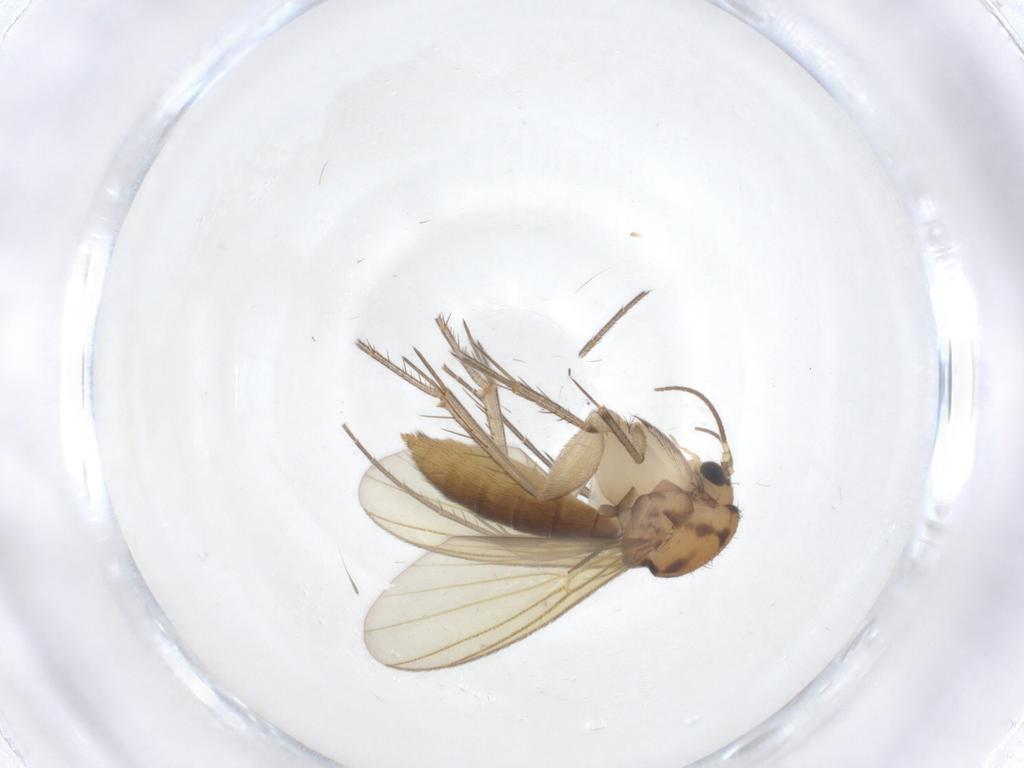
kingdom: Animalia
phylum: Arthropoda
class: Insecta
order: Diptera
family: Mycetophilidae
